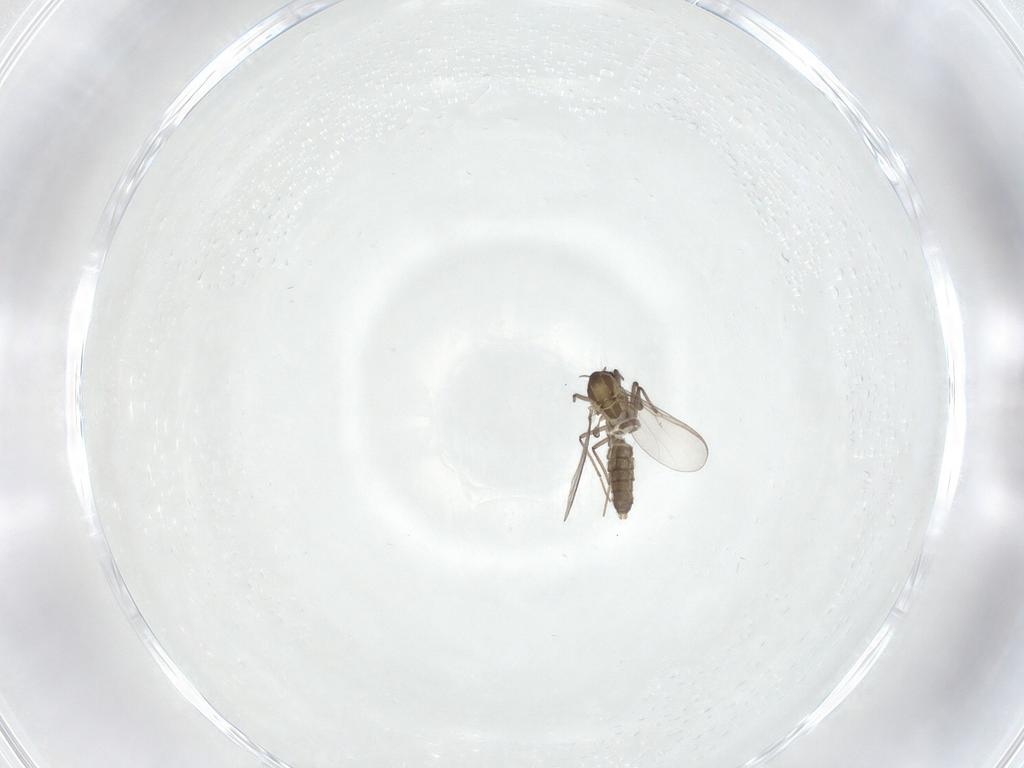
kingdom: Animalia
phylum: Arthropoda
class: Insecta
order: Diptera
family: Chironomidae
